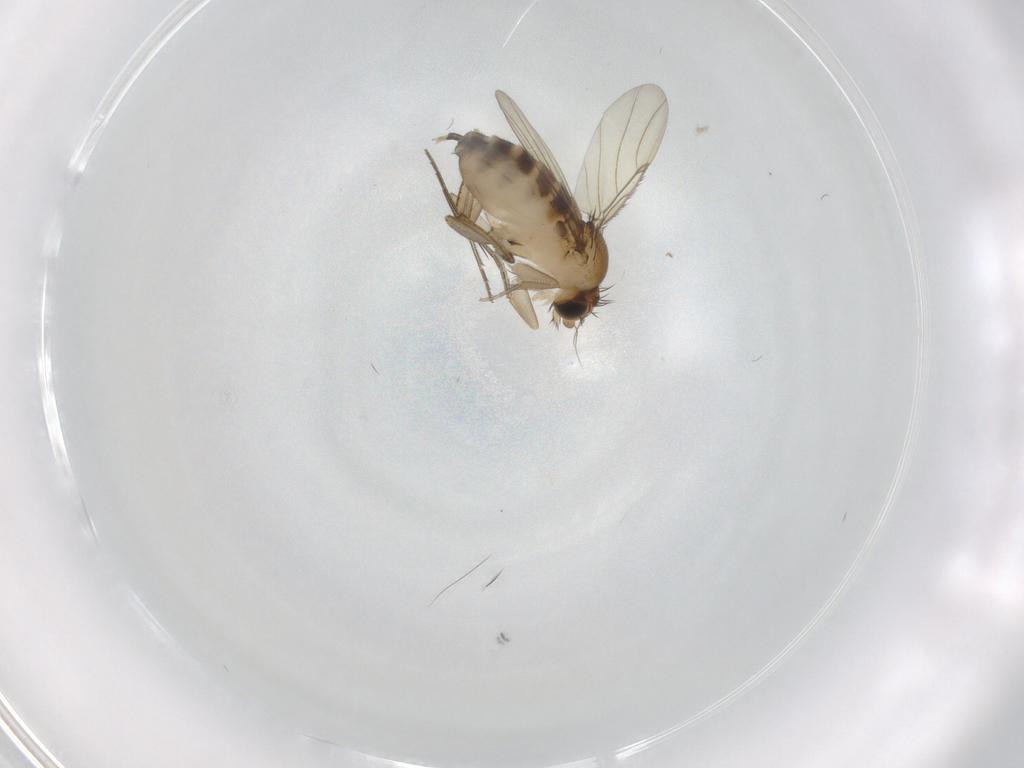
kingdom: Animalia
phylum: Arthropoda
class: Insecta
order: Diptera
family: Phoridae
